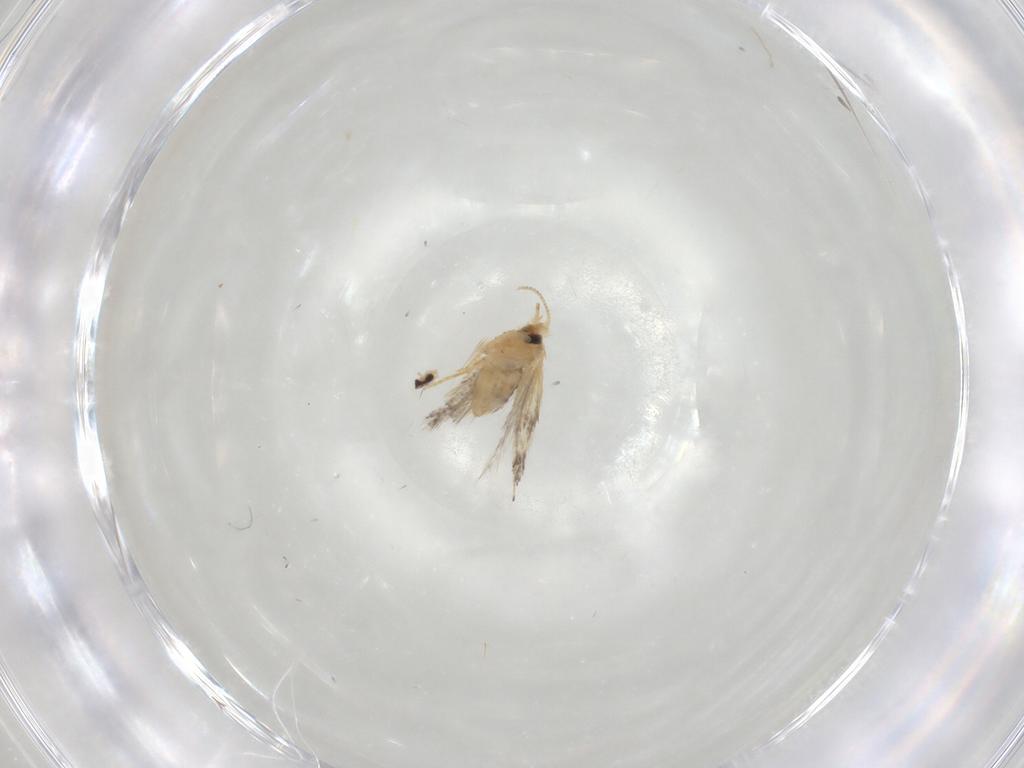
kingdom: Animalia
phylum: Arthropoda
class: Insecta
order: Lepidoptera
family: Nepticulidae
